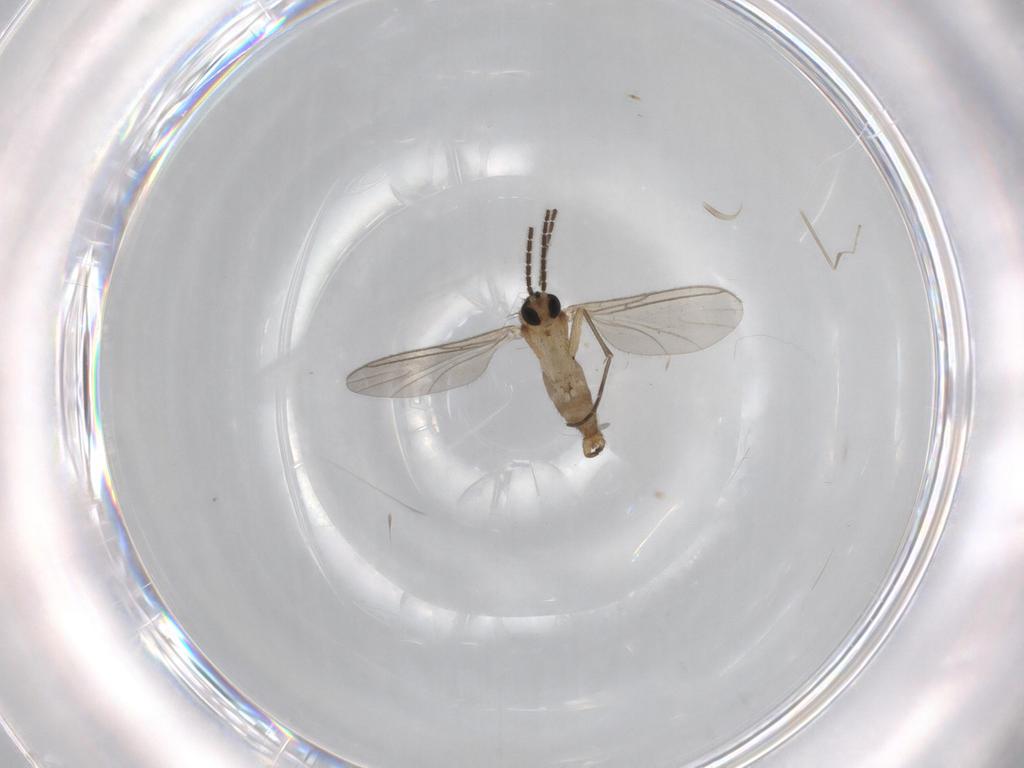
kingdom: Animalia
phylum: Arthropoda
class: Insecta
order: Diptera
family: Sciaridae
